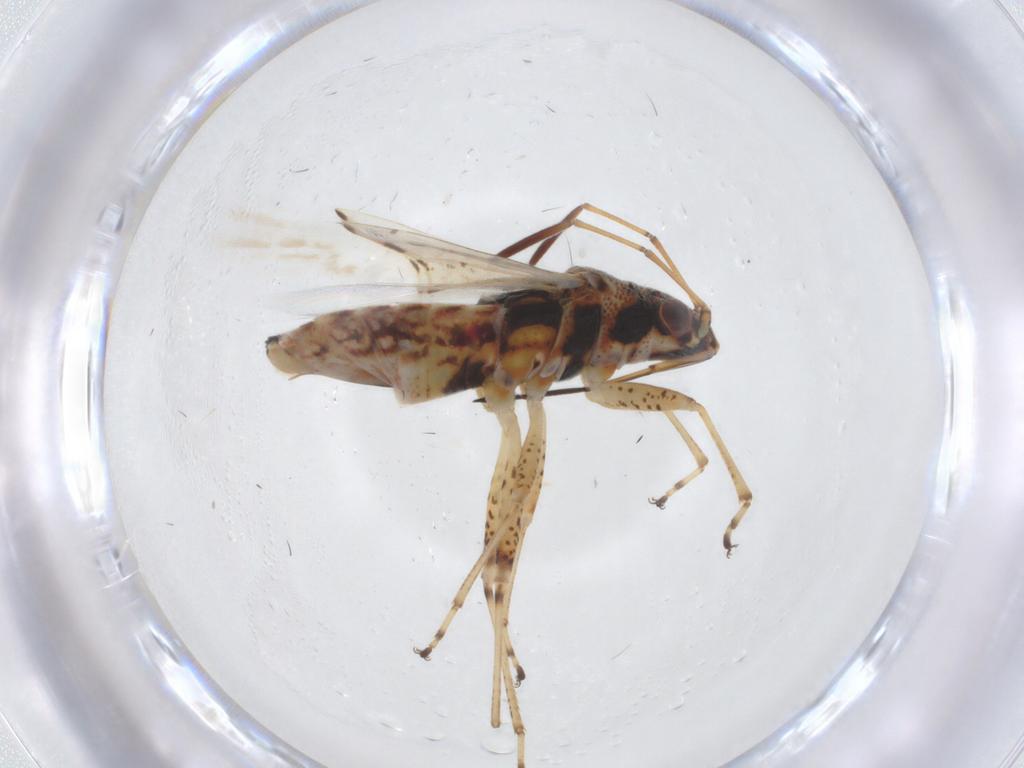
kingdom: Animalia
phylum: Arthropoda
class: Insecta
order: Hemiptera
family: Lygaeidae
